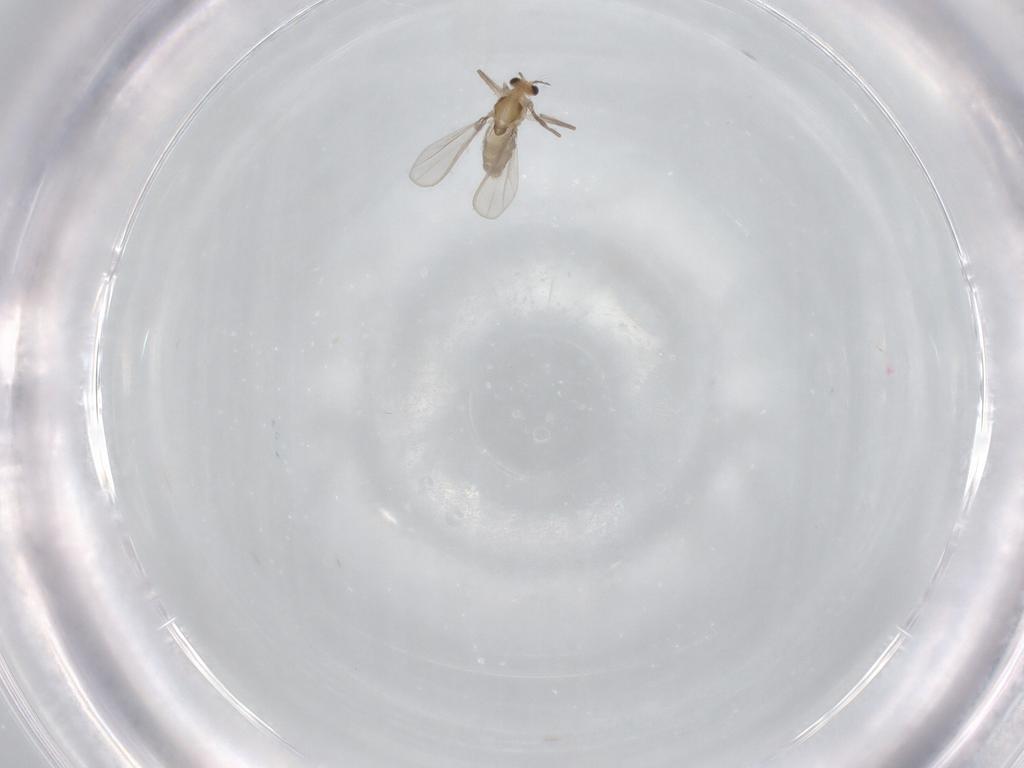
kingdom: Animalia
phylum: Arthropoda
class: Insecta
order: Diptera
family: Chironomidae
